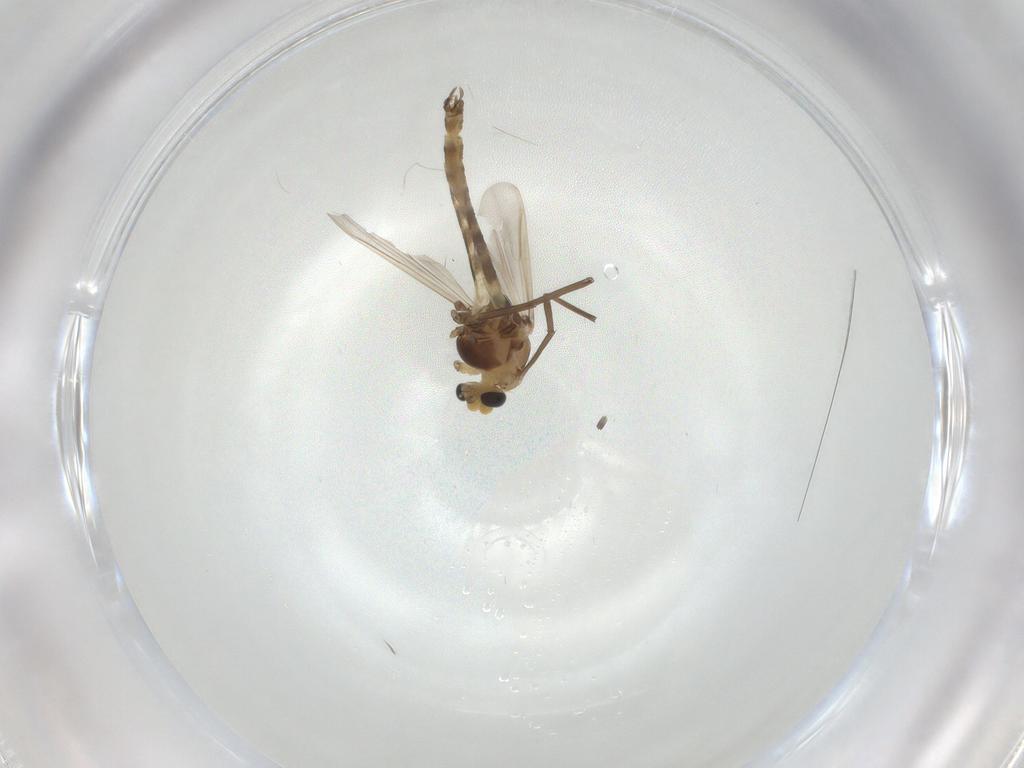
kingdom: Animalia
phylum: Arthropoda
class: Insecta
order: Diptera
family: Chironomidae
